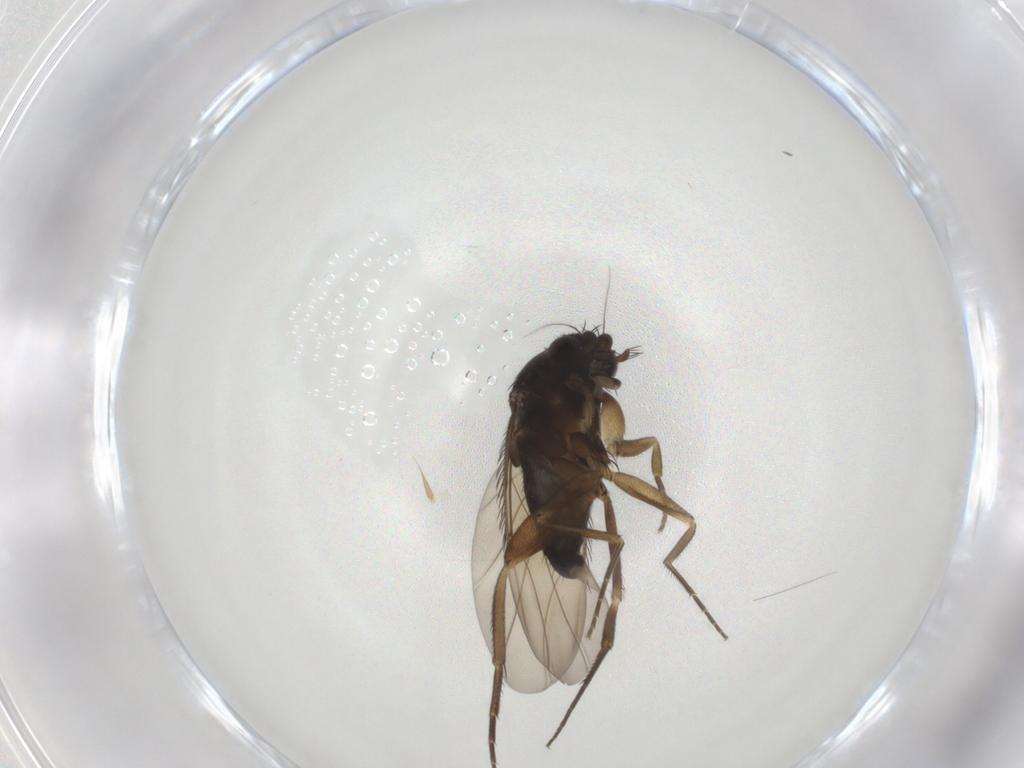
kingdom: Animalia
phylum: Arthropoda
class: Insecta
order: Diptera
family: Phoridae
